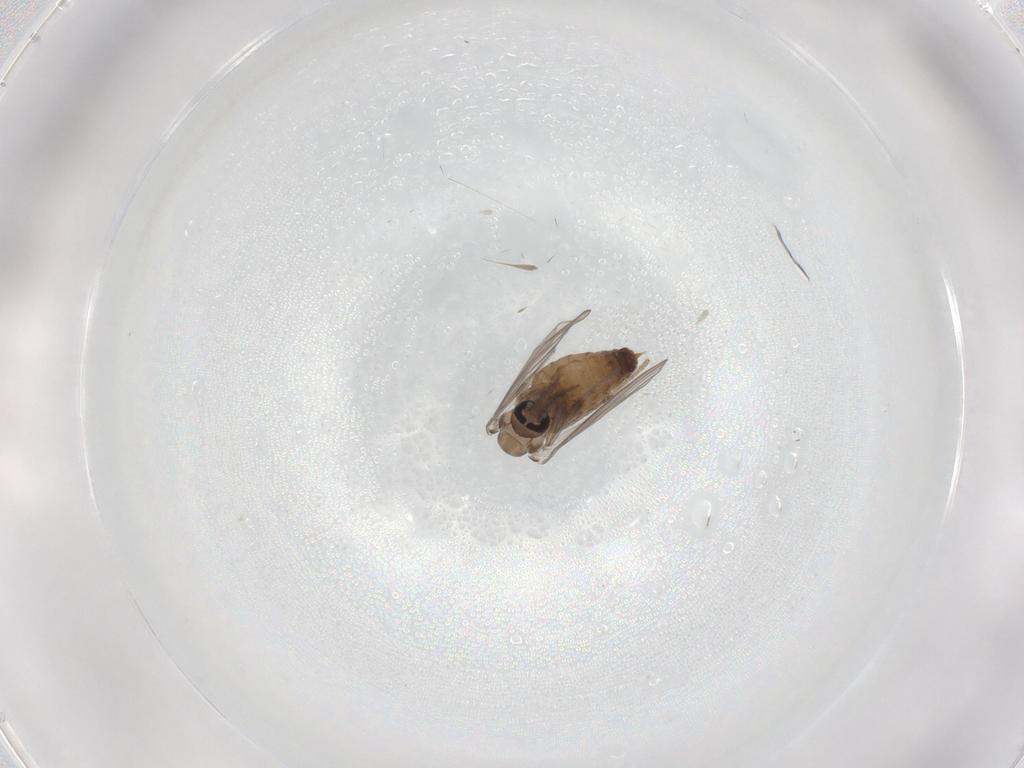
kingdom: Animalia
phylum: Arthropoda
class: Insecta
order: Diptera
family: Psychodidae
